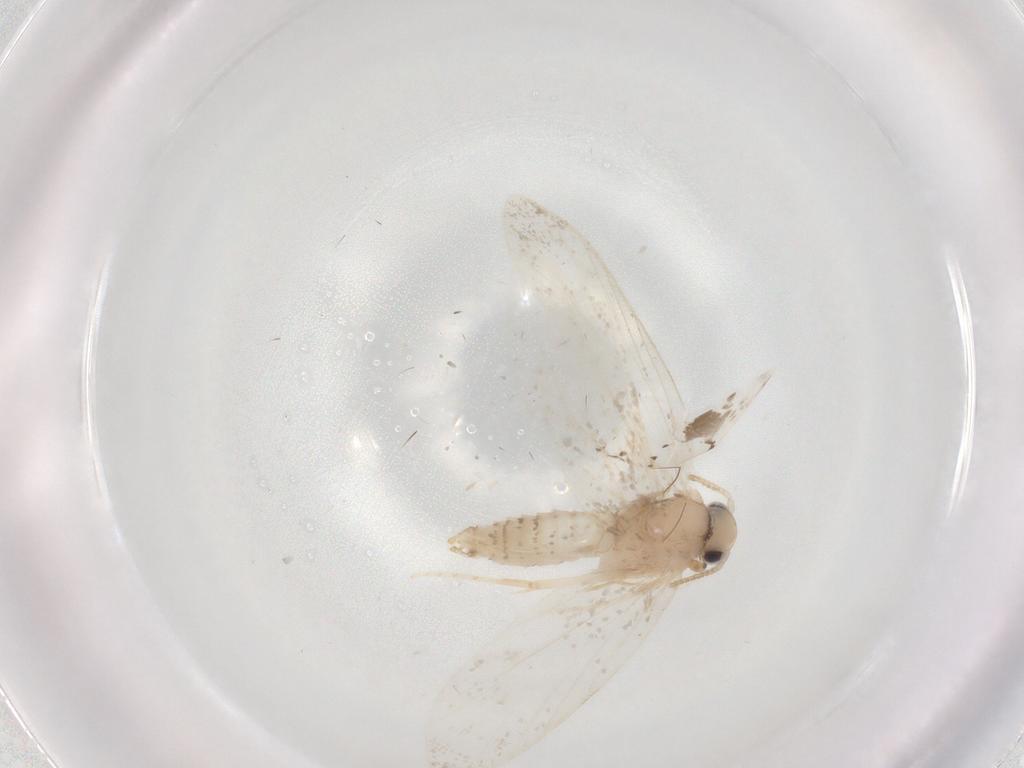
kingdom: Animalia
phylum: Arthropoda
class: Insecta
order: Lepidoptera
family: Psychidae
